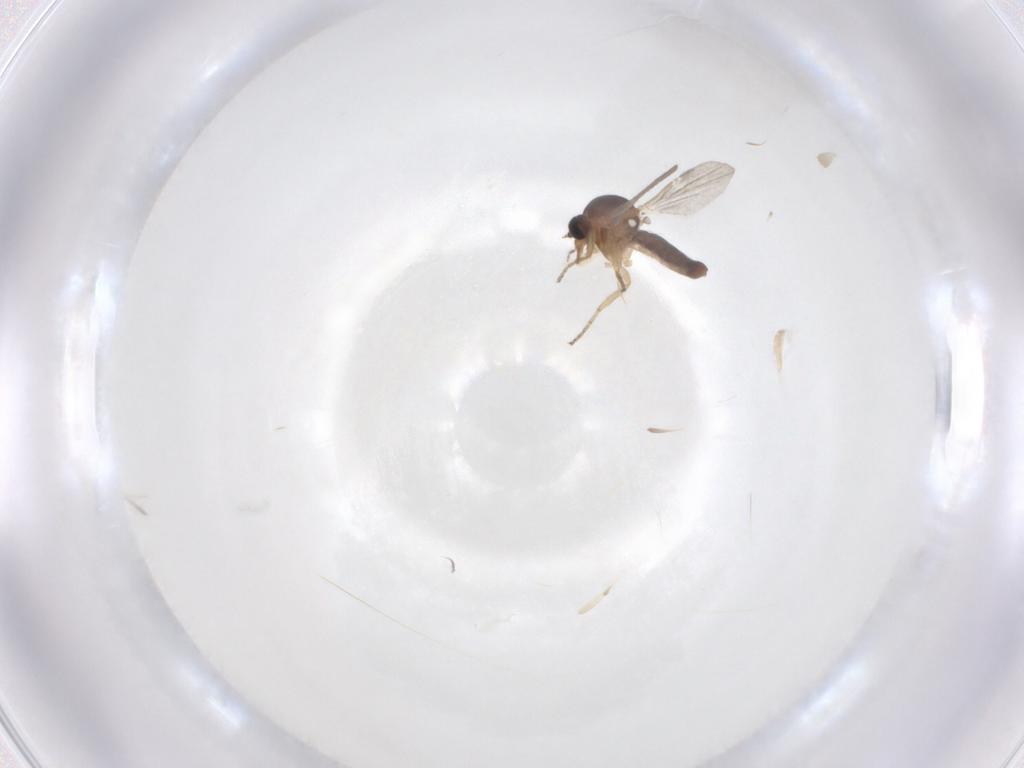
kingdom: Animalia
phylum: Arthropoda
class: Insecta
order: Diptera
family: Ceratopogonidae
